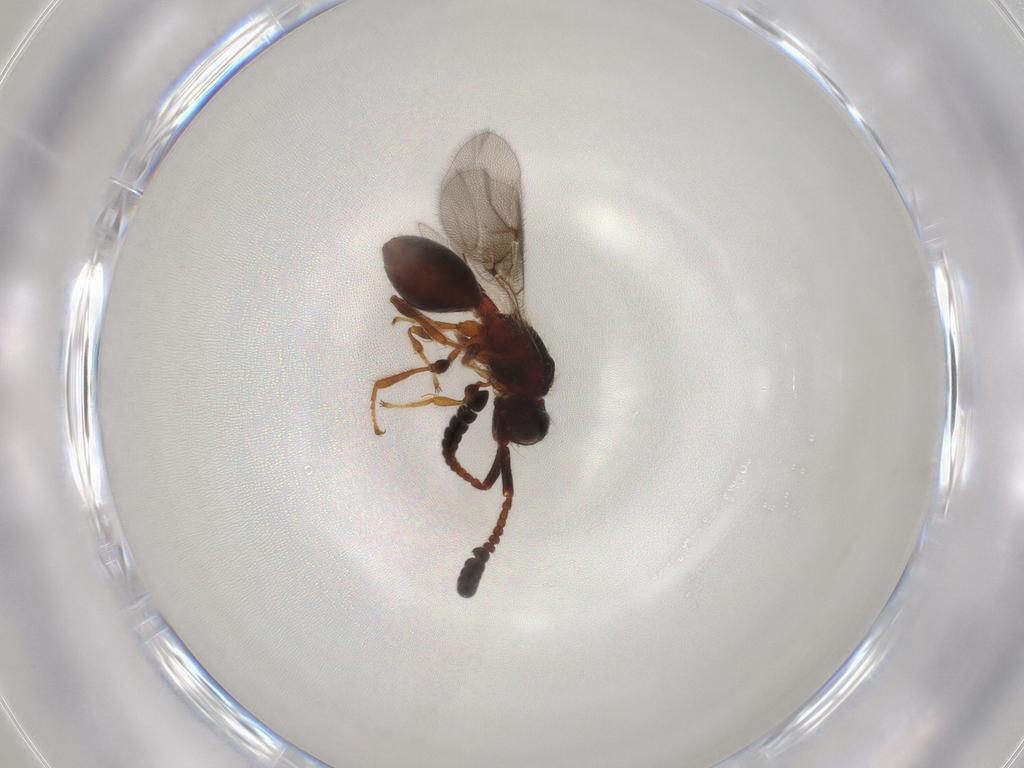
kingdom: Animalia
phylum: Arthropoda
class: Insecta
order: Hymenoptera
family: Diapriidae
